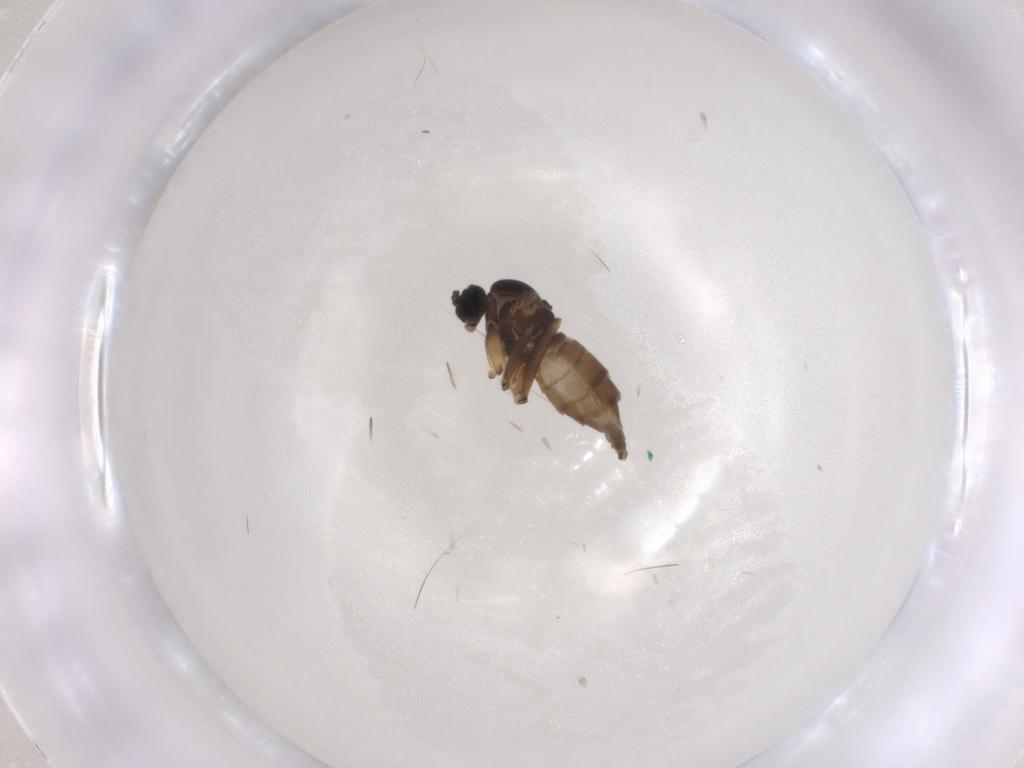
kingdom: Animalia
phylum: Arthropoda
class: Insecta
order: Diptera
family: Sciaridae
